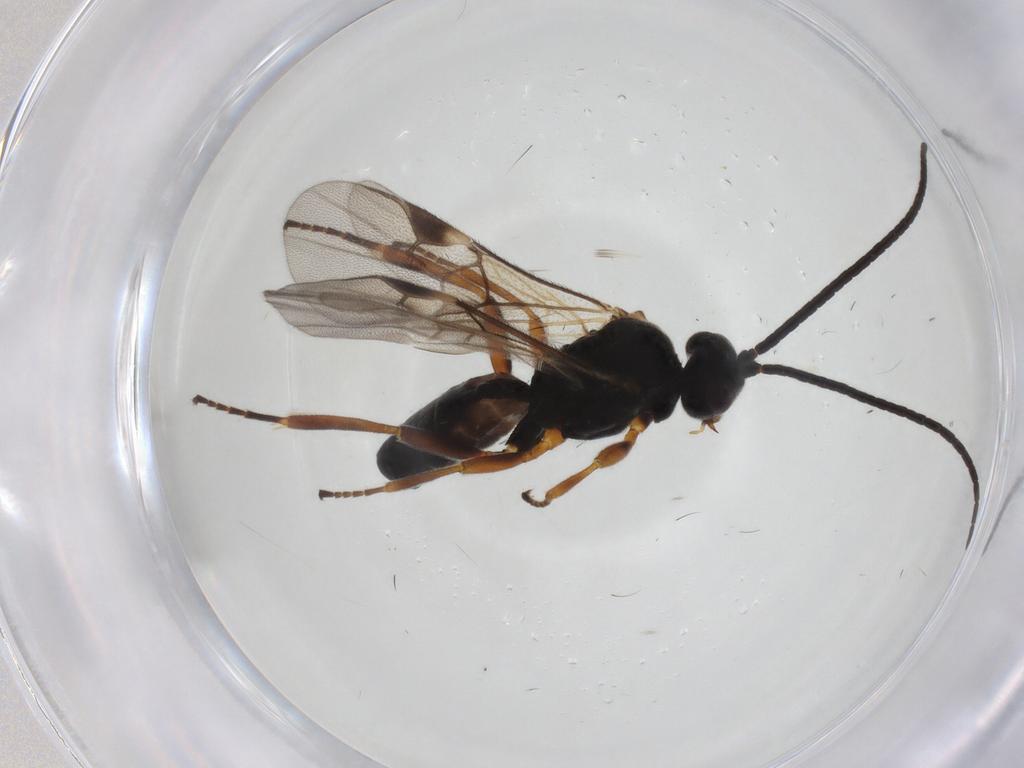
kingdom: Animalia
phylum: Arthropoda
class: Insecta
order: Hymenoptera
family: Braconidae
